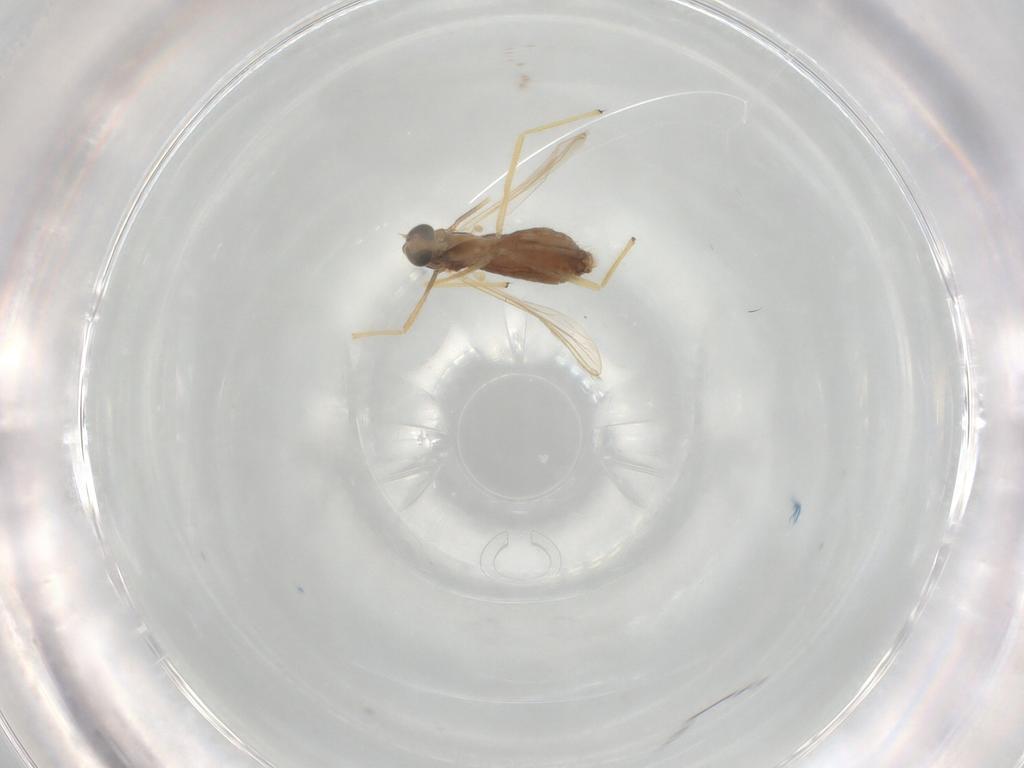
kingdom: Animalia
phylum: Arthropoda
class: Insecta
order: Diptera
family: Chironomidae
